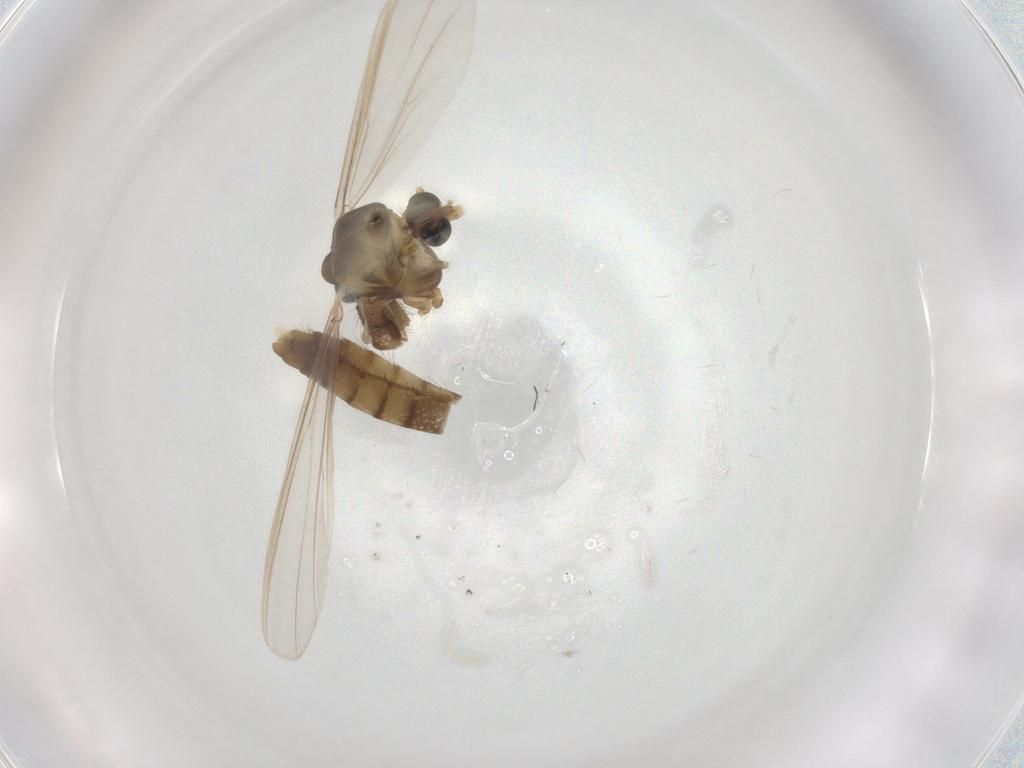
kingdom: Animalia
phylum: Arthropoda
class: Insecta
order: Diptera
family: Chironomidae
